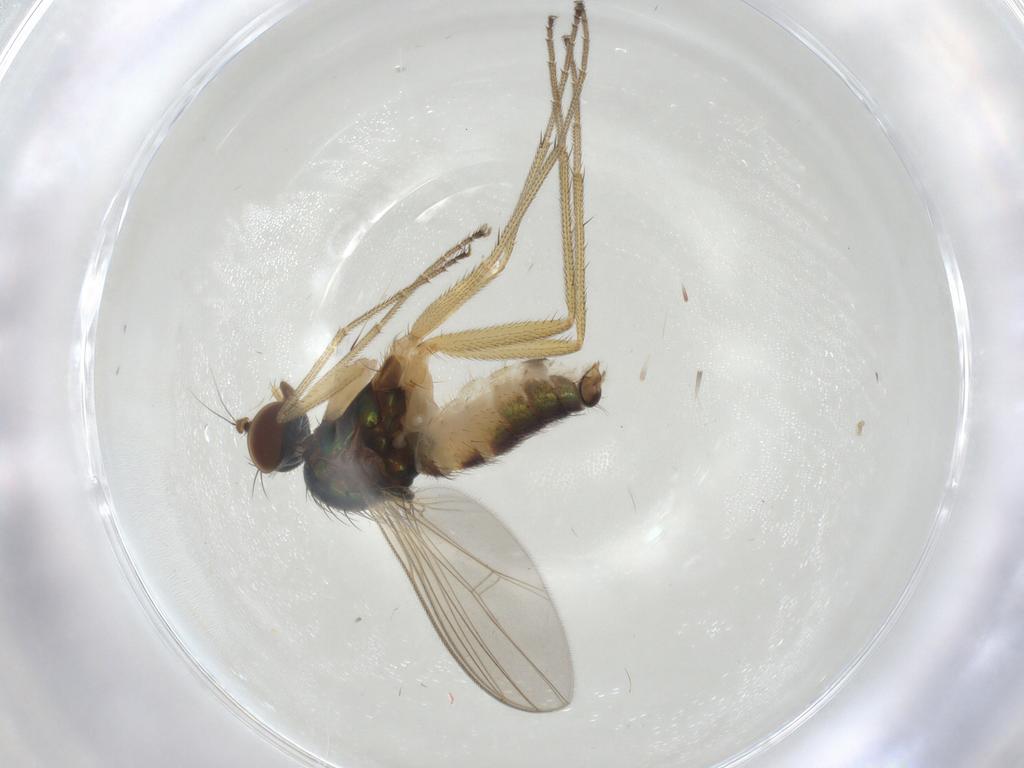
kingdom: Animalia
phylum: Arthropoda
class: Insecta
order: Diptera
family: Dolichopodidae
